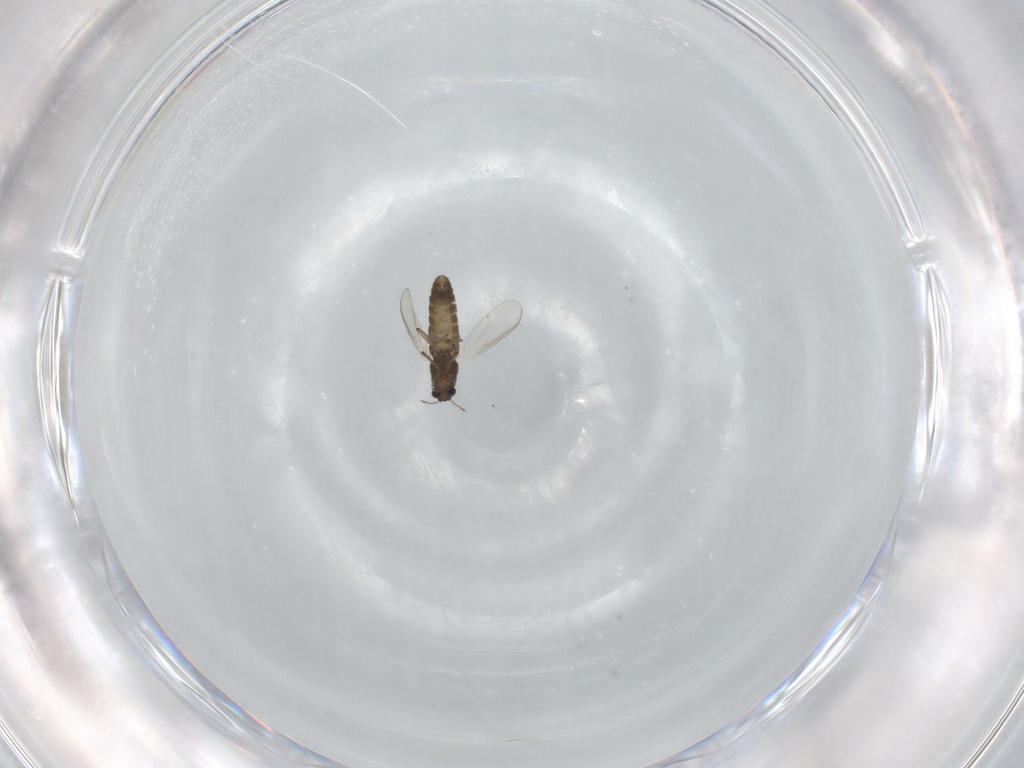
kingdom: Animalia
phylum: Arthropoda
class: Insecta
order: Diptera
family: Chironomidae
